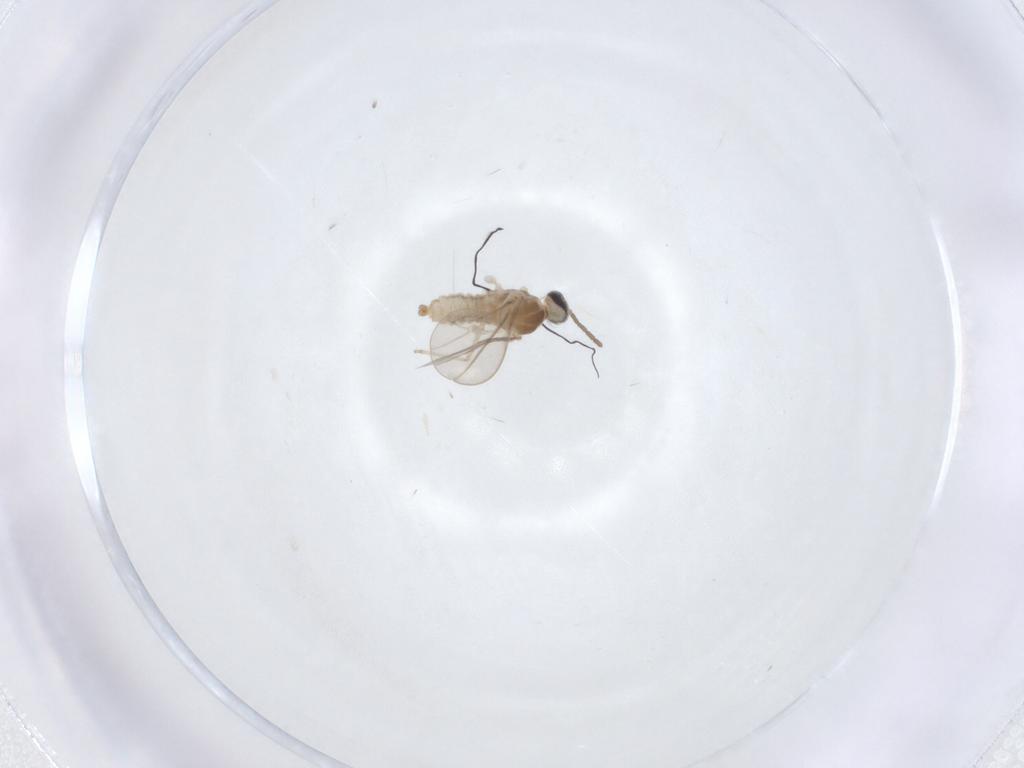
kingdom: Animalia
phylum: Arthropoda
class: Insecta
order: Diptera
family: Cecidomyiidae
